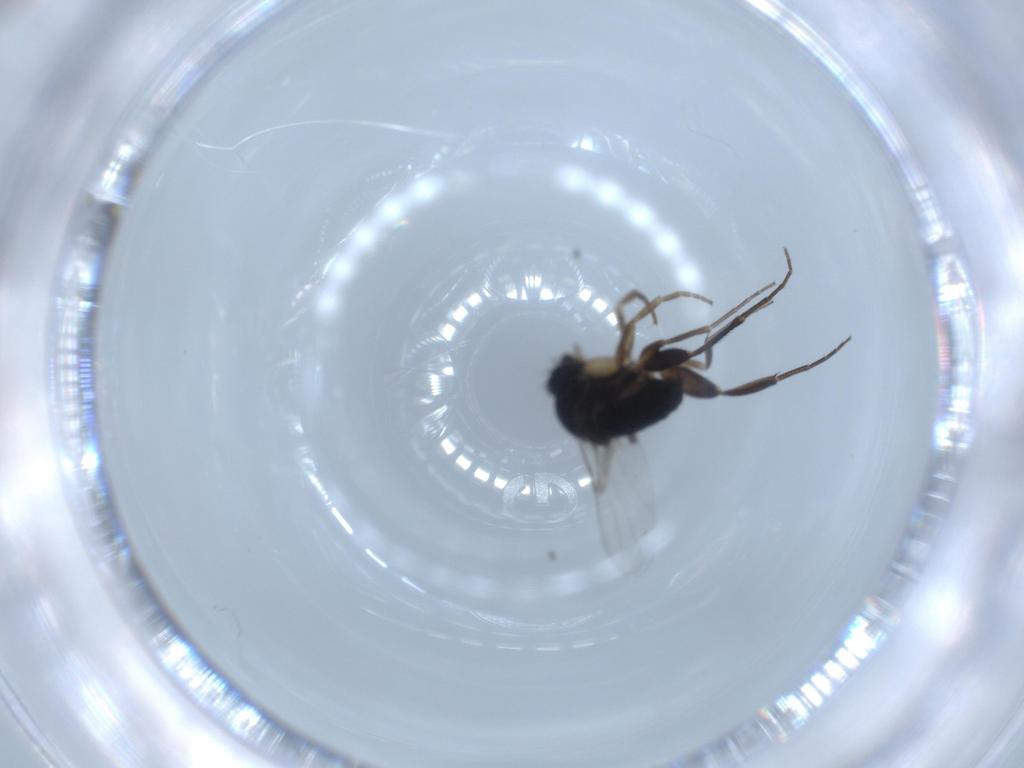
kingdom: Animalia
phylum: Arthropoda
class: Insecta
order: Diptera
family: Phoridae
